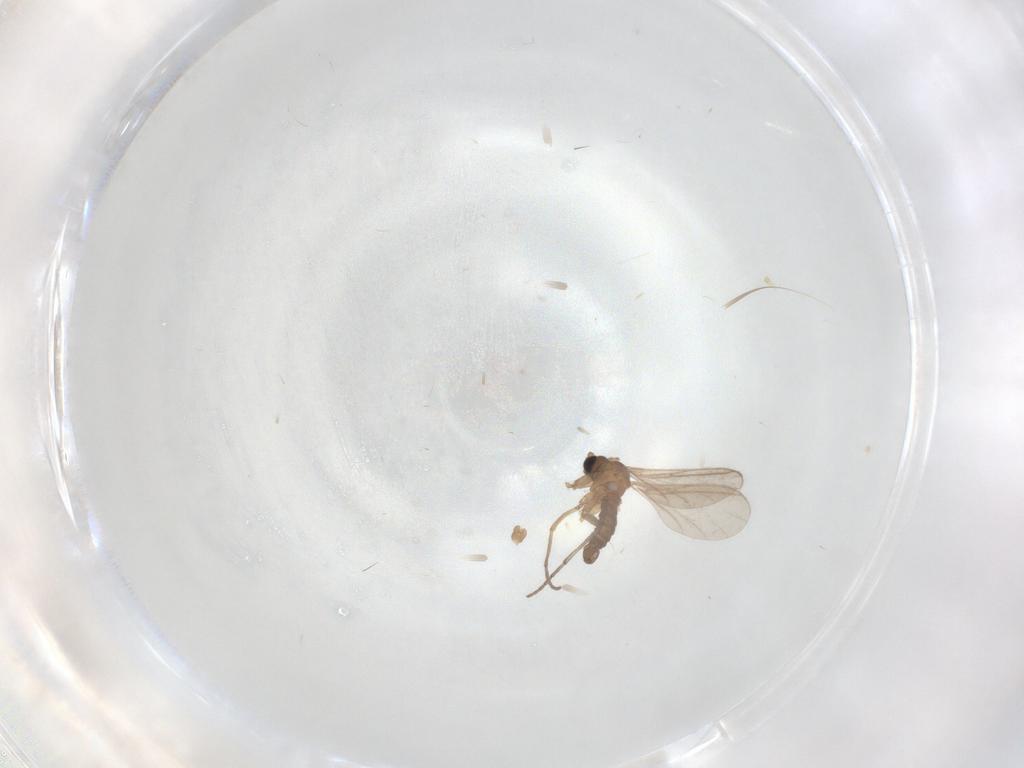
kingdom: Animalia
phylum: Arthropoda
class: Insecta
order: Diptera
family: Sciaridae
